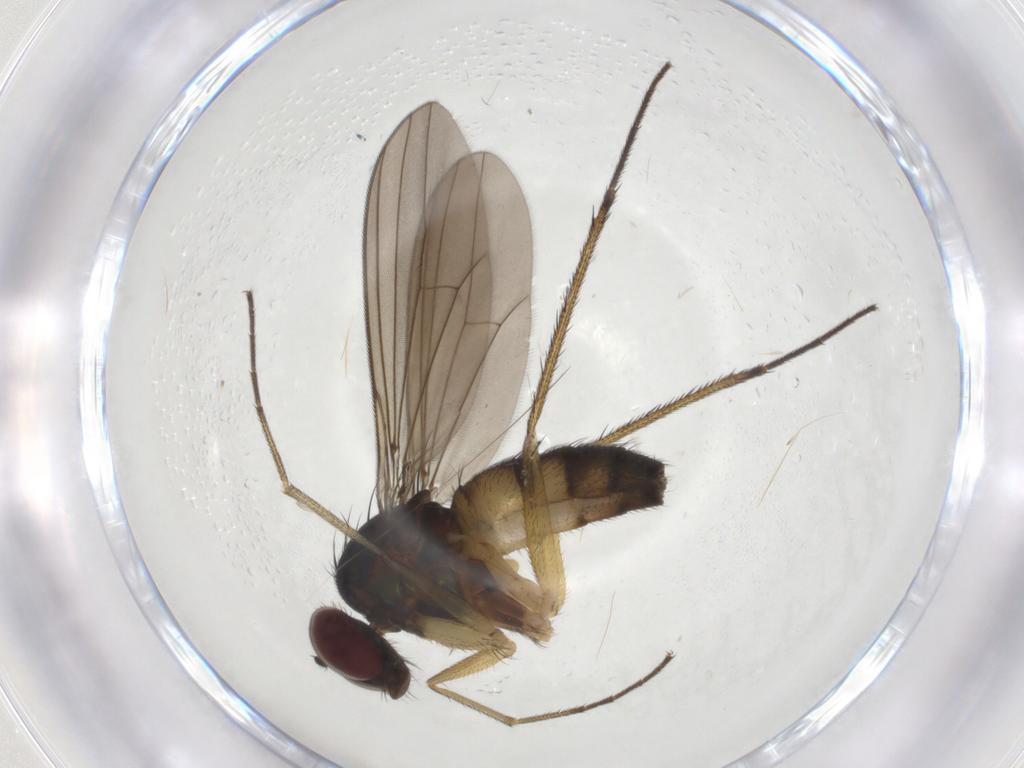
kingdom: Animalia
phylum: Arthropoda
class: Insecta
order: Diptera
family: Dolichopodidae
